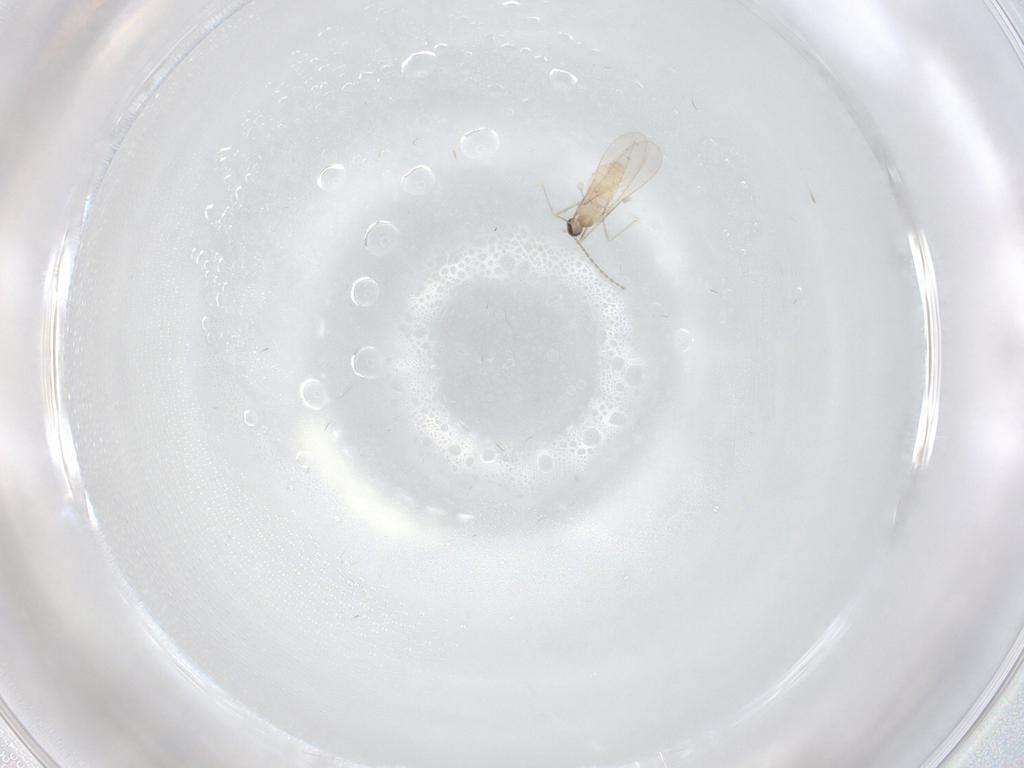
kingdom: Animalia
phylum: Arthropoda
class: Insecta
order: Diptera
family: Cecidomyiidae
